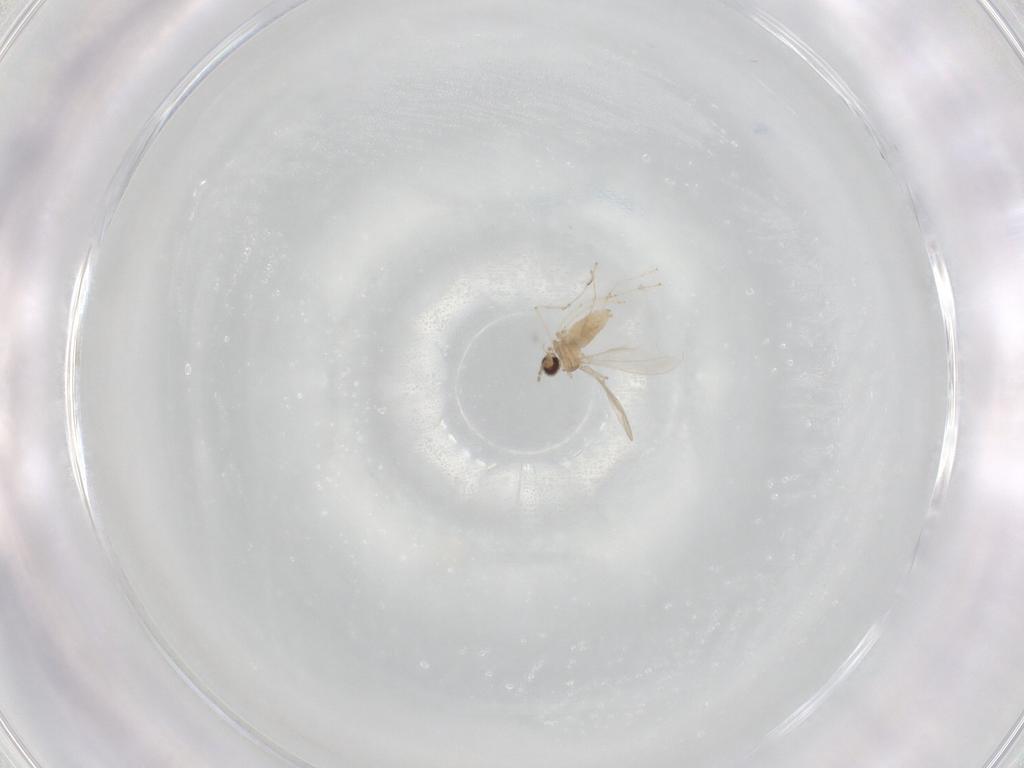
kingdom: Animalia
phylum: Arthropoda
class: Insecta
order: Diptera
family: Cecidomyiidae
